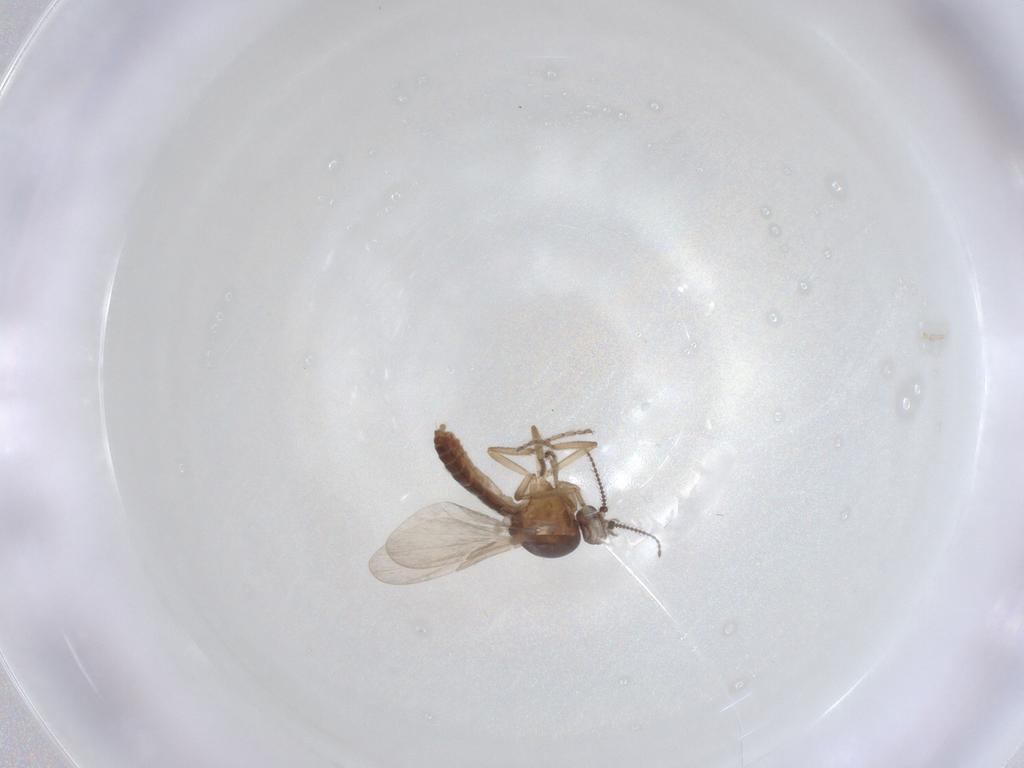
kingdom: Animalia
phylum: Arthropoda
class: Insecta
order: Diptera
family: Chironomidae
